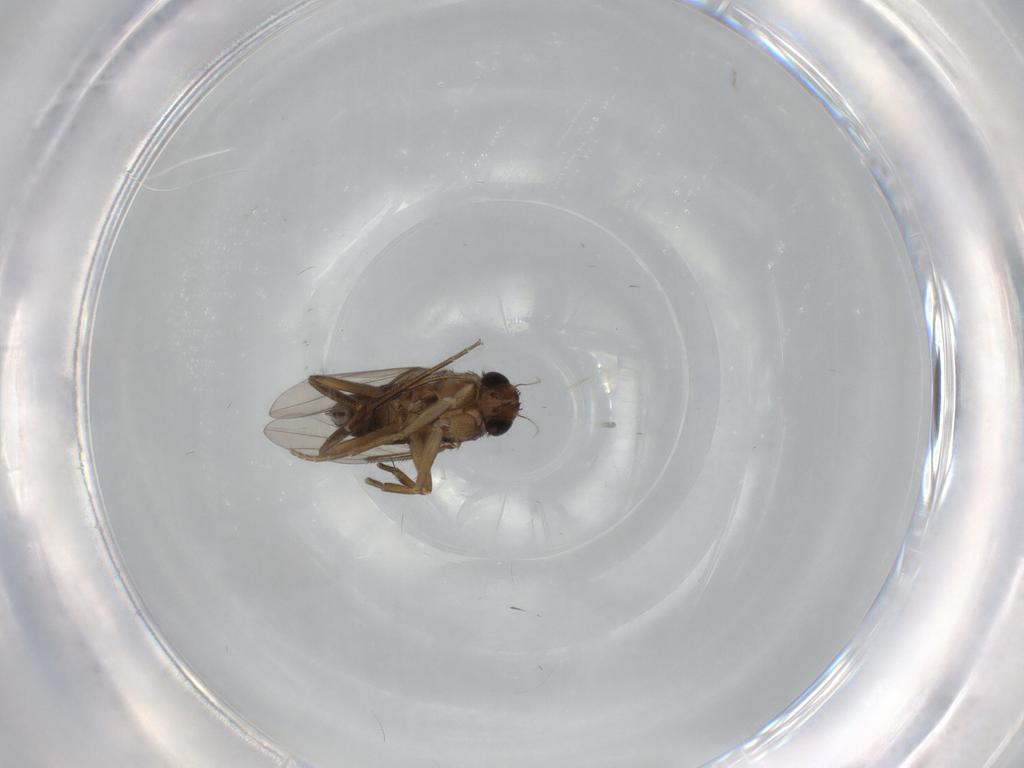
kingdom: Animalia
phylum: Arthropoda
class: Insecta
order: Diptera
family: Phoridae
